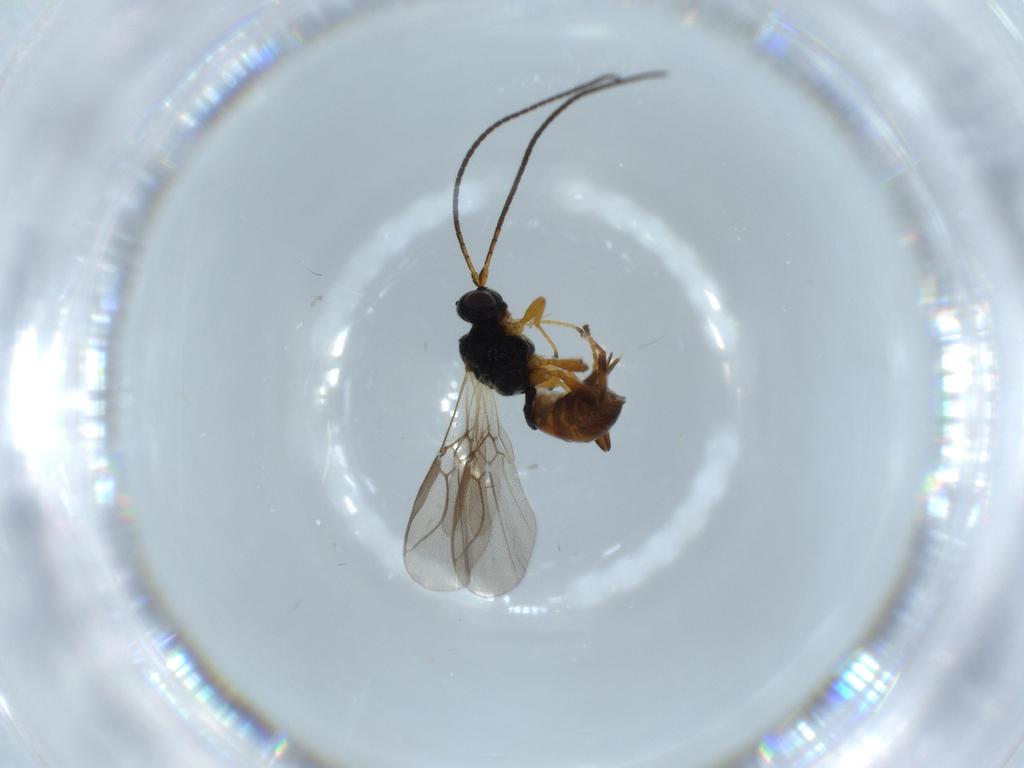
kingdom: Animalia
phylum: Arthropoda
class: Insecta
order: Hymenoptera
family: Braconidae
